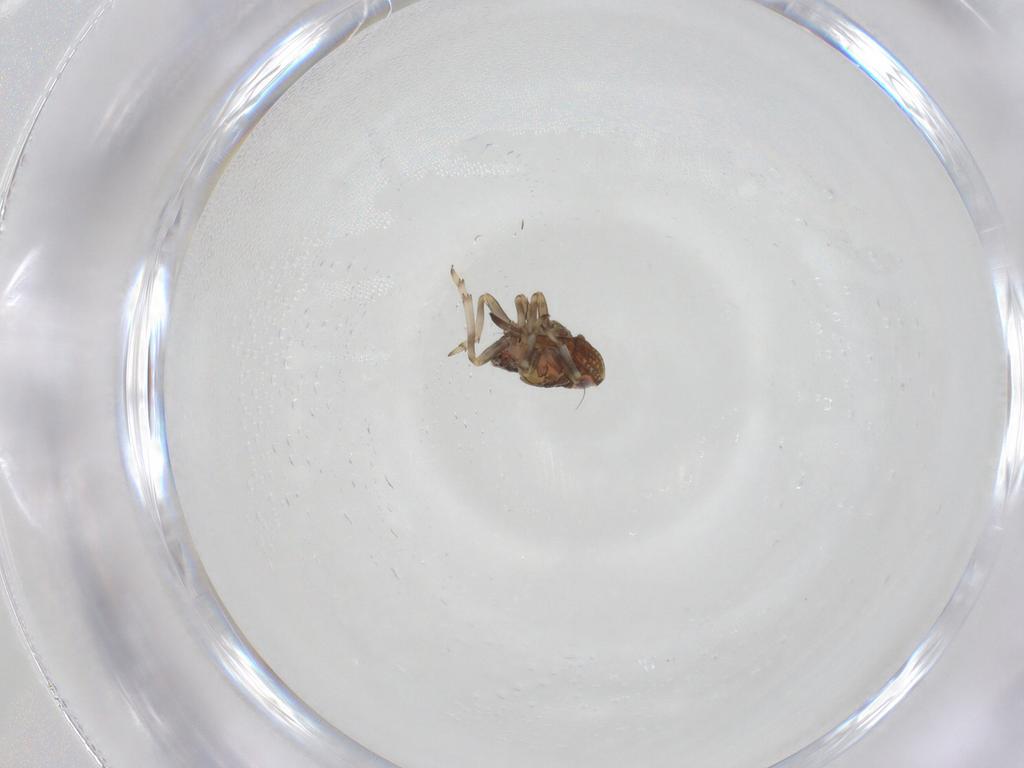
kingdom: Animalia
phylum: Arthropoda
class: Insecta
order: Hemiptera
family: Tropiduchidae
